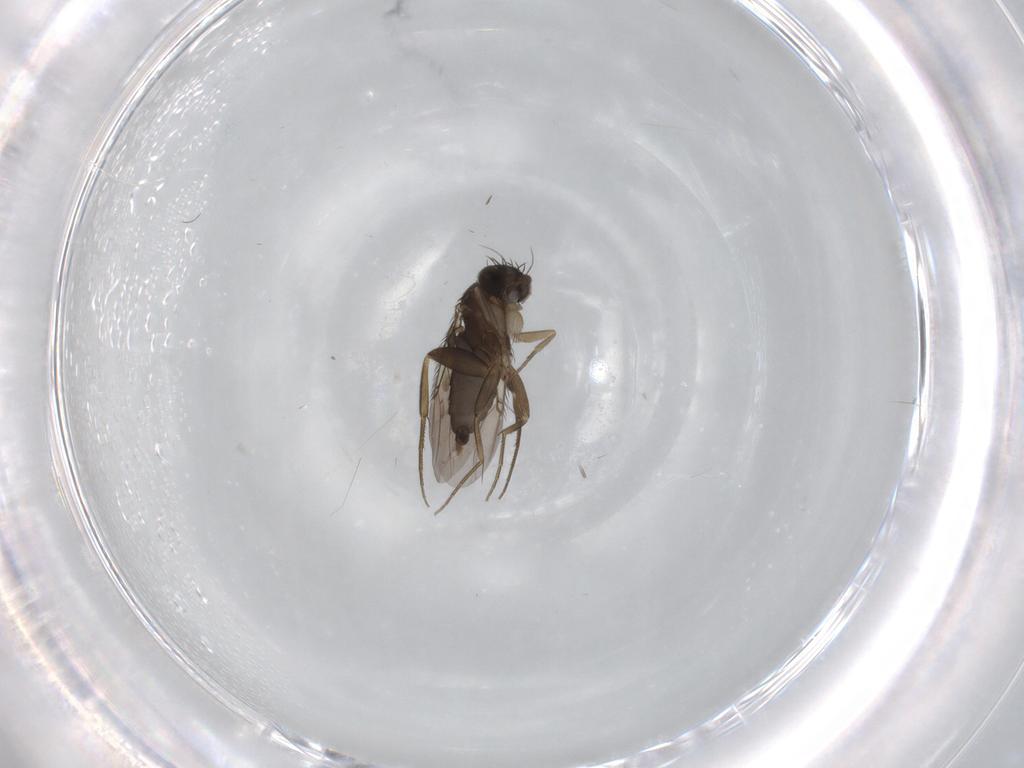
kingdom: Animalia
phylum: Arthropoda
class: Insecta
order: Diptera
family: Phoridae
